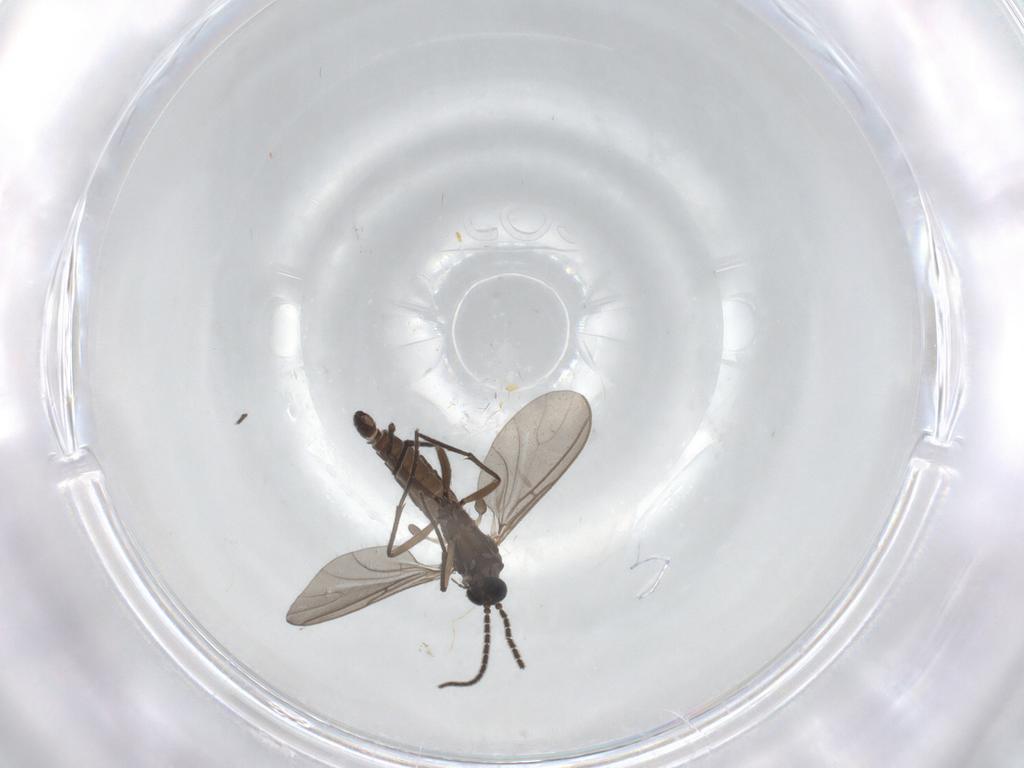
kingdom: Animalia
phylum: Arthropoda
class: Insecta
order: Diptera
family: Sciaridae
